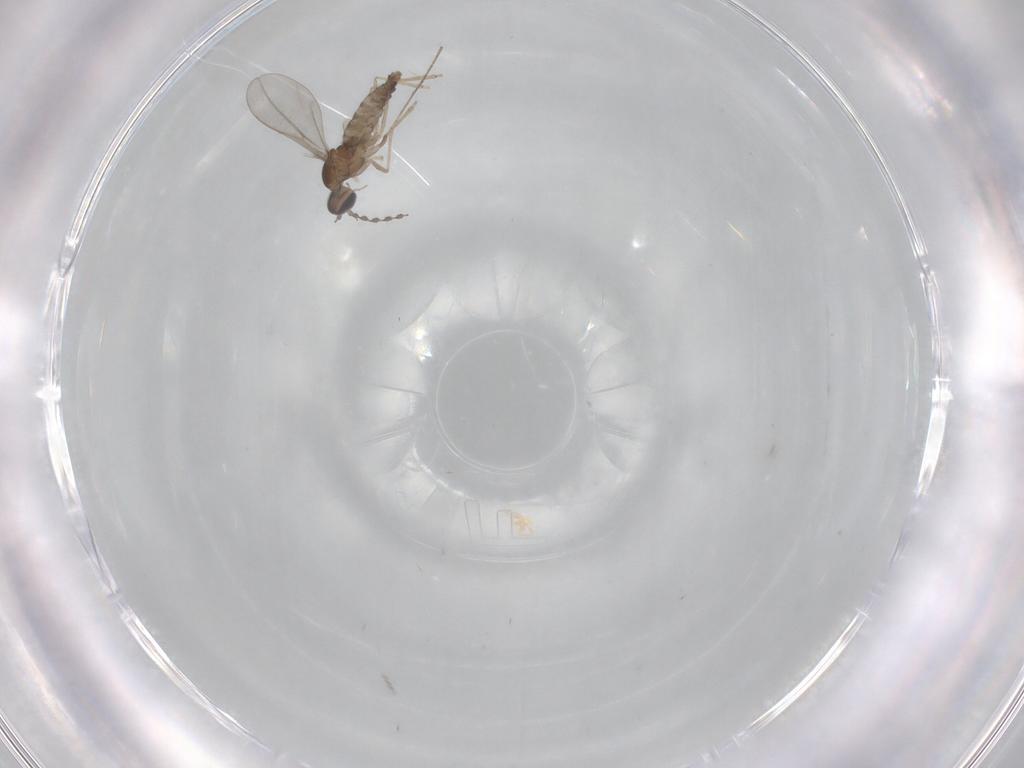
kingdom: Animalia
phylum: Arthropoda
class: Insecta
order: Diptera
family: Cecidomyiidae
